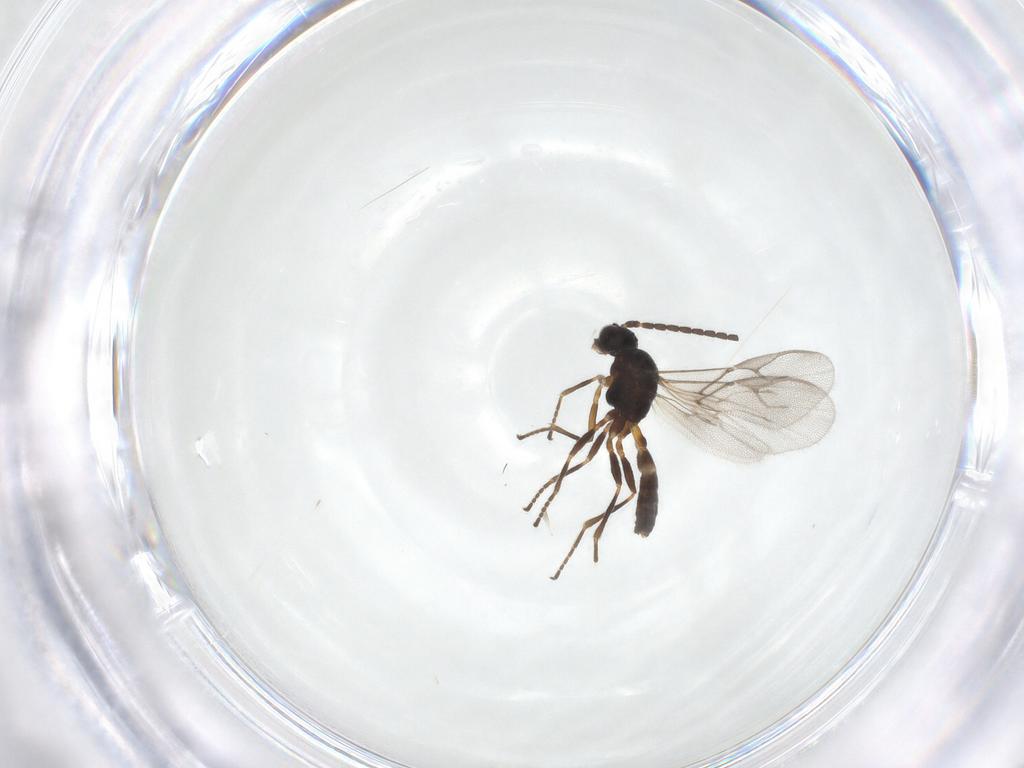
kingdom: Animalia
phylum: Arthropoda
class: Insecta
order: Hymenoptera
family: Braconidae
